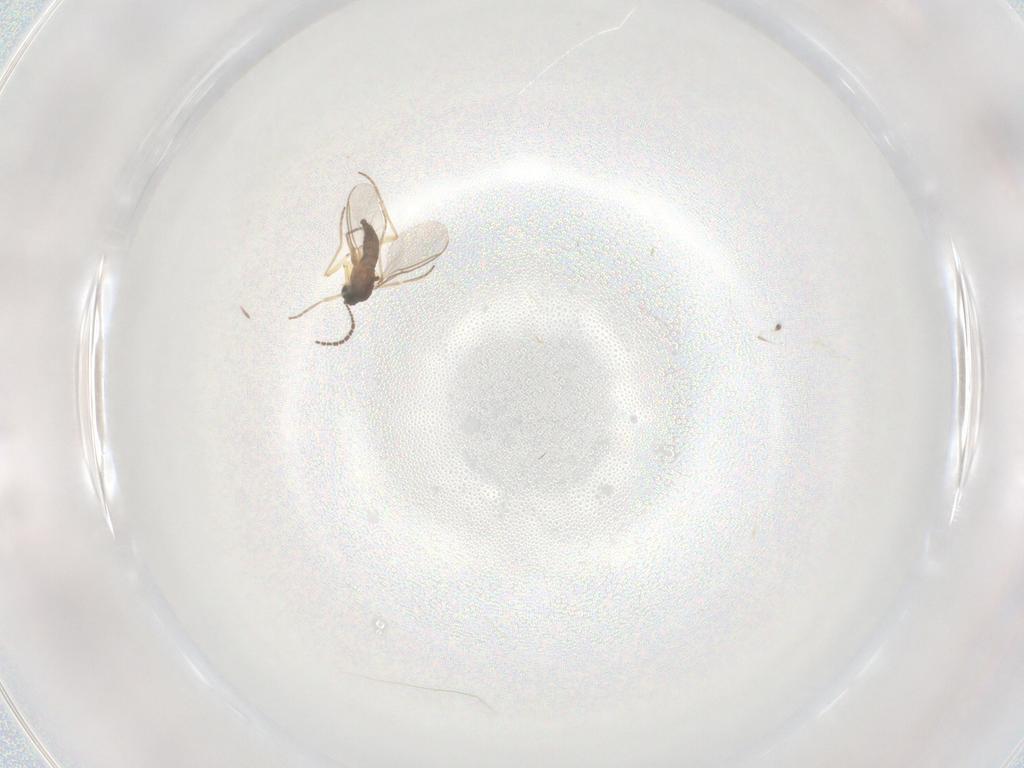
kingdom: Animalia
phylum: Arthropoda
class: Insecta
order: Diptera
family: Sciaridae
